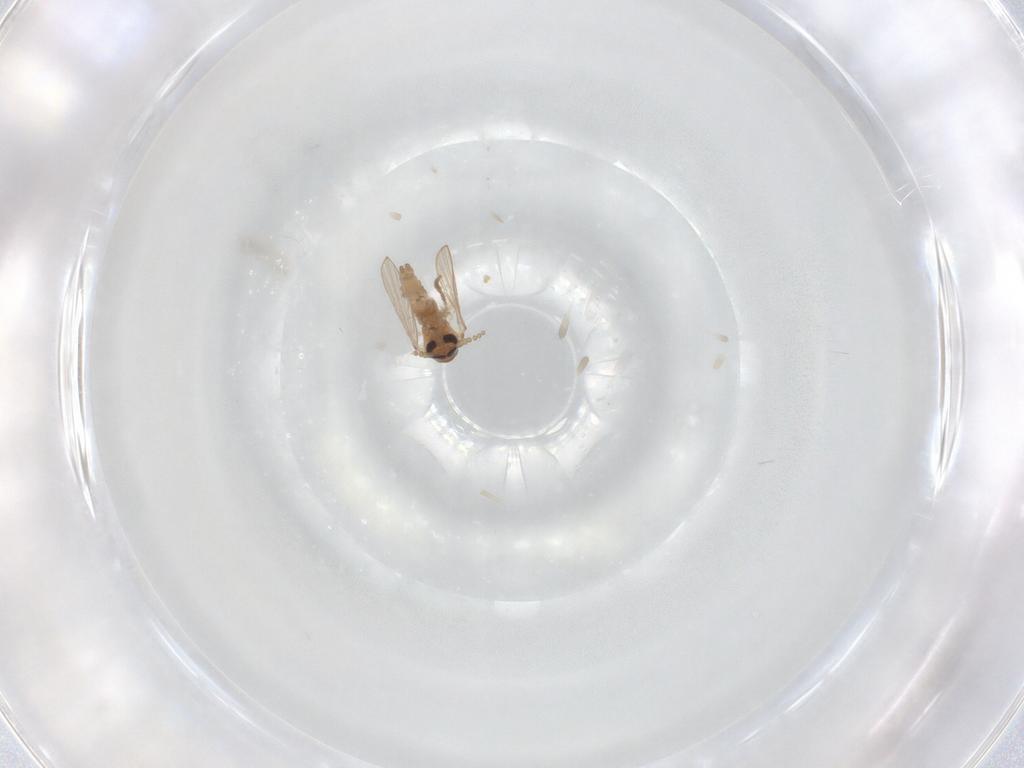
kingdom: Animalia
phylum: Arthropoda
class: Insecta
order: Diptera
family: Psychodidae
